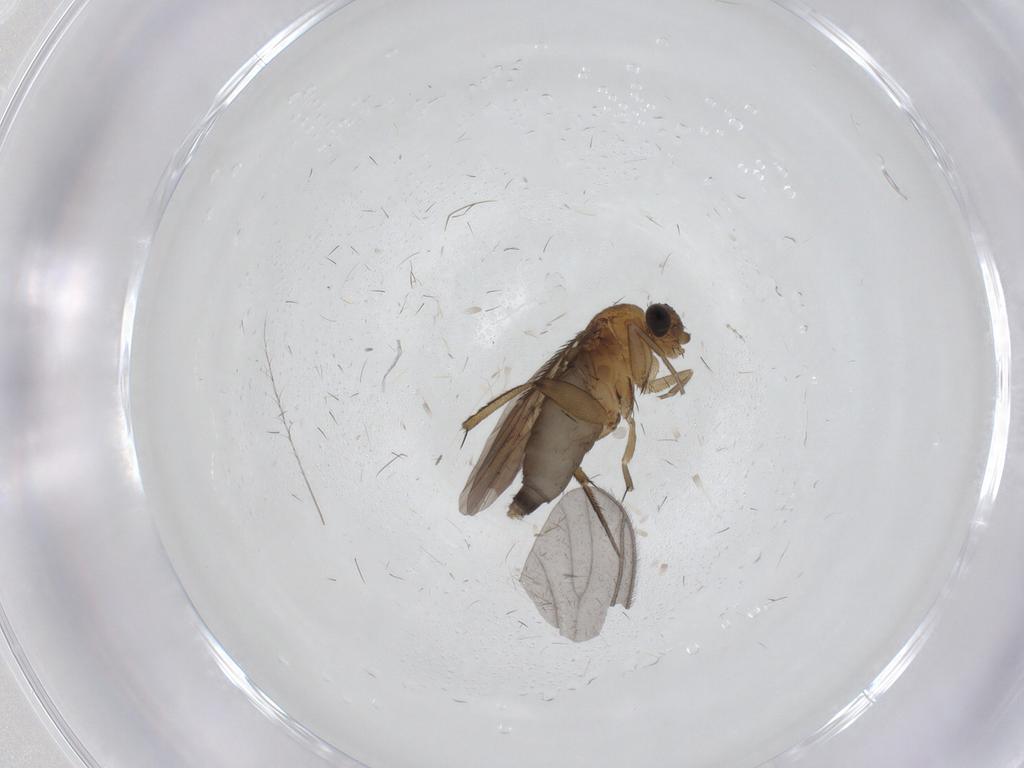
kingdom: Animalia
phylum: Arthropoda
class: Insecta
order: Diptera
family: Phoridae
